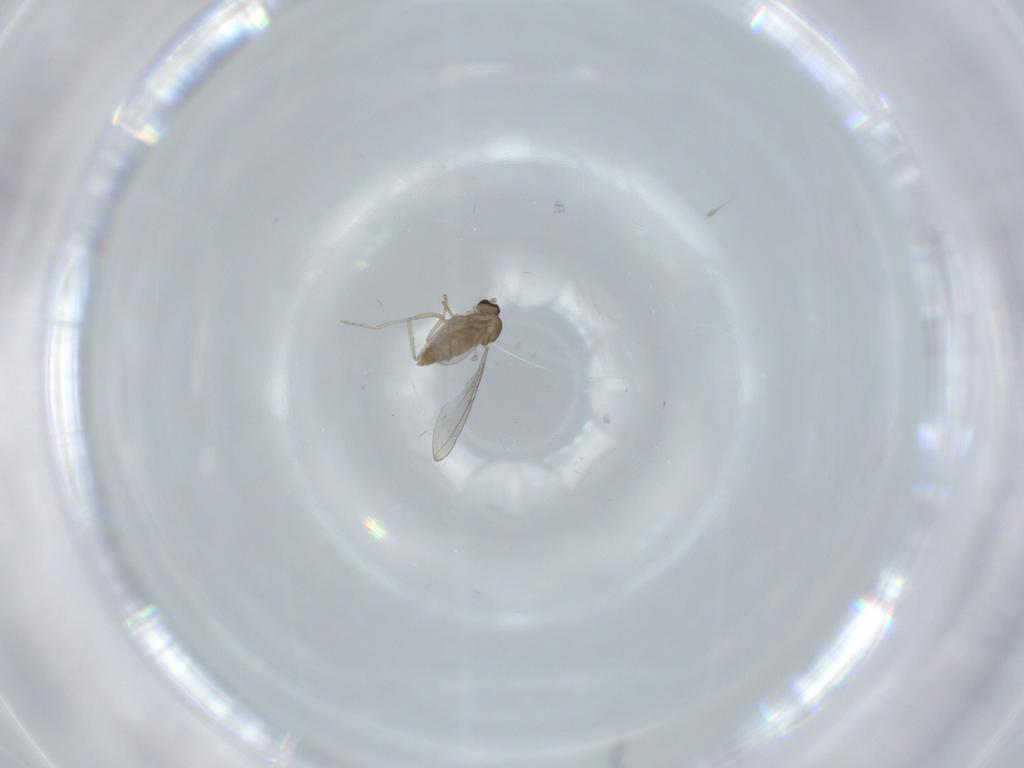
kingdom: Animalia
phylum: Arthropoda
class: Insecta
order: Diptera
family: Cecidomyiidae
